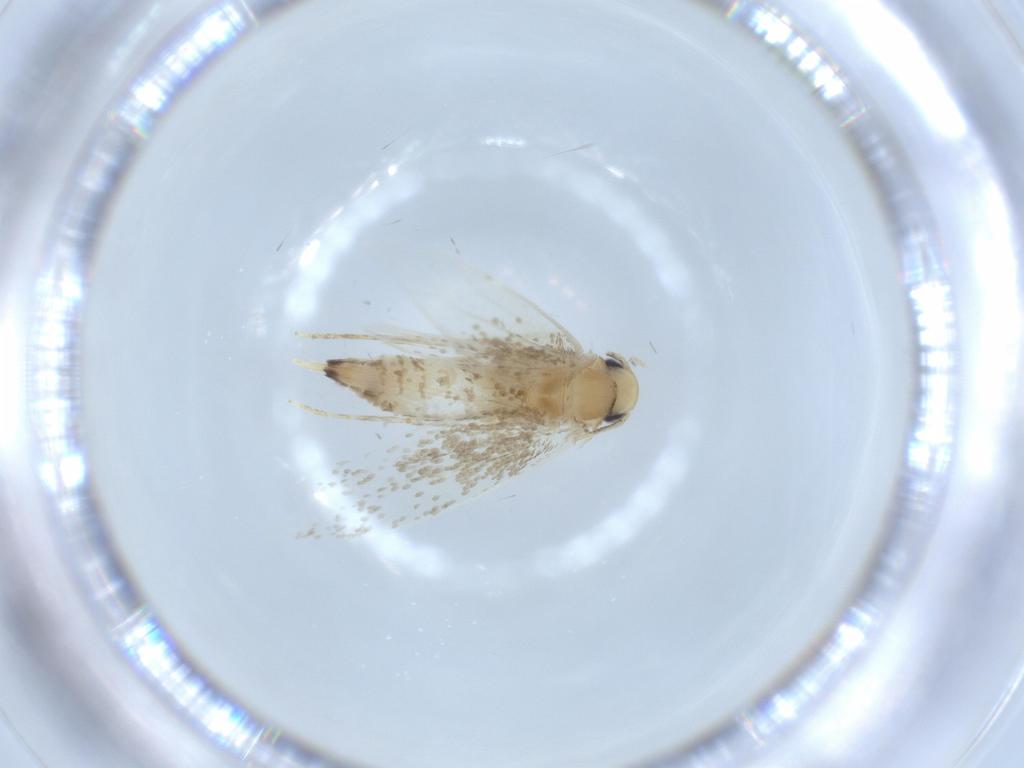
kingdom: Animalia
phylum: Arthropoda
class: Insecta
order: Lepidoptera
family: Tineidae
